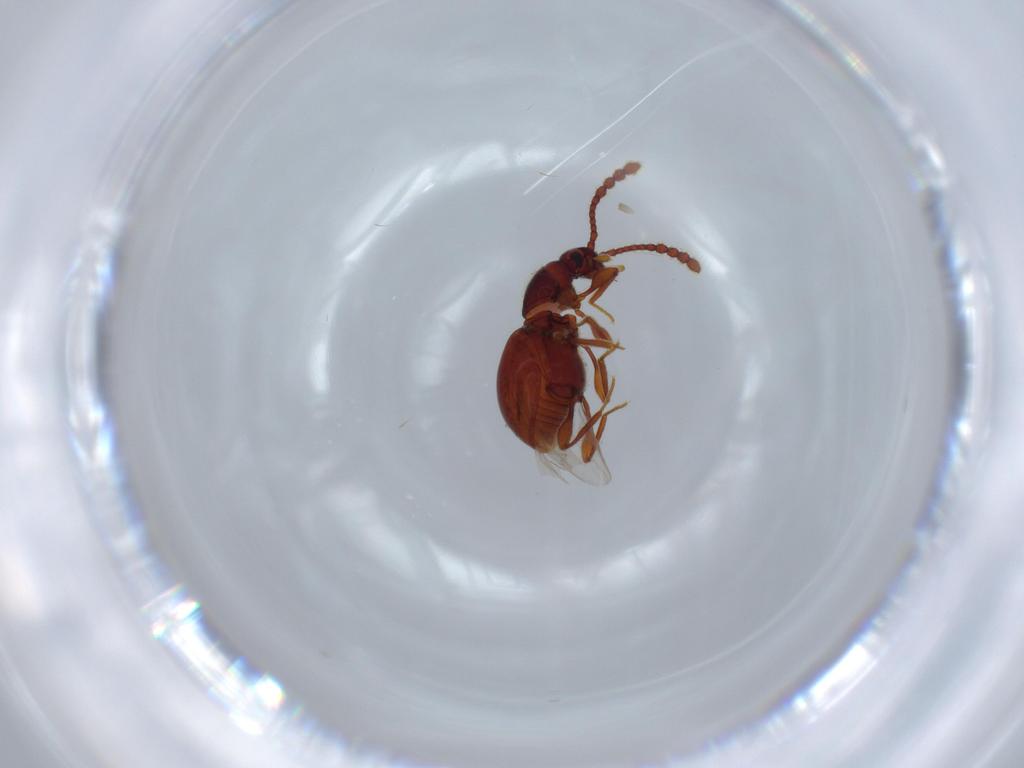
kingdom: Animalia
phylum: Arthropoda
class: Insecta
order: Coleoptera
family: Staphylinidae
